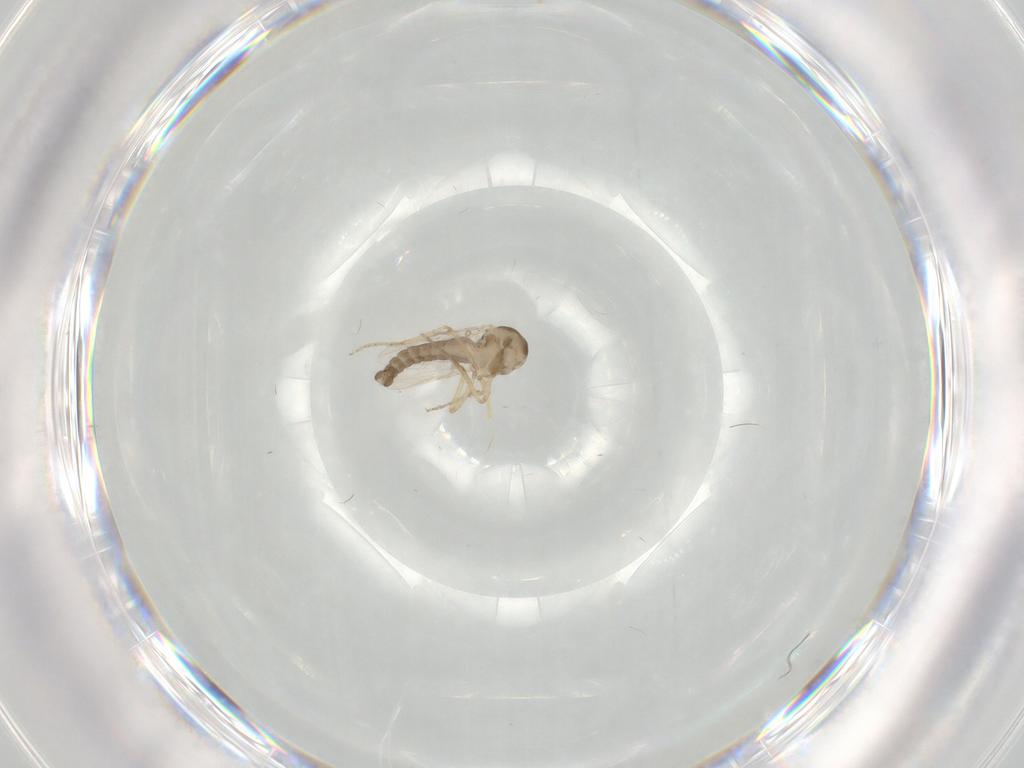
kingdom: Animalia
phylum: Arthropoda
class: Insecta
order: Diptera
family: Ceratopogonidae
